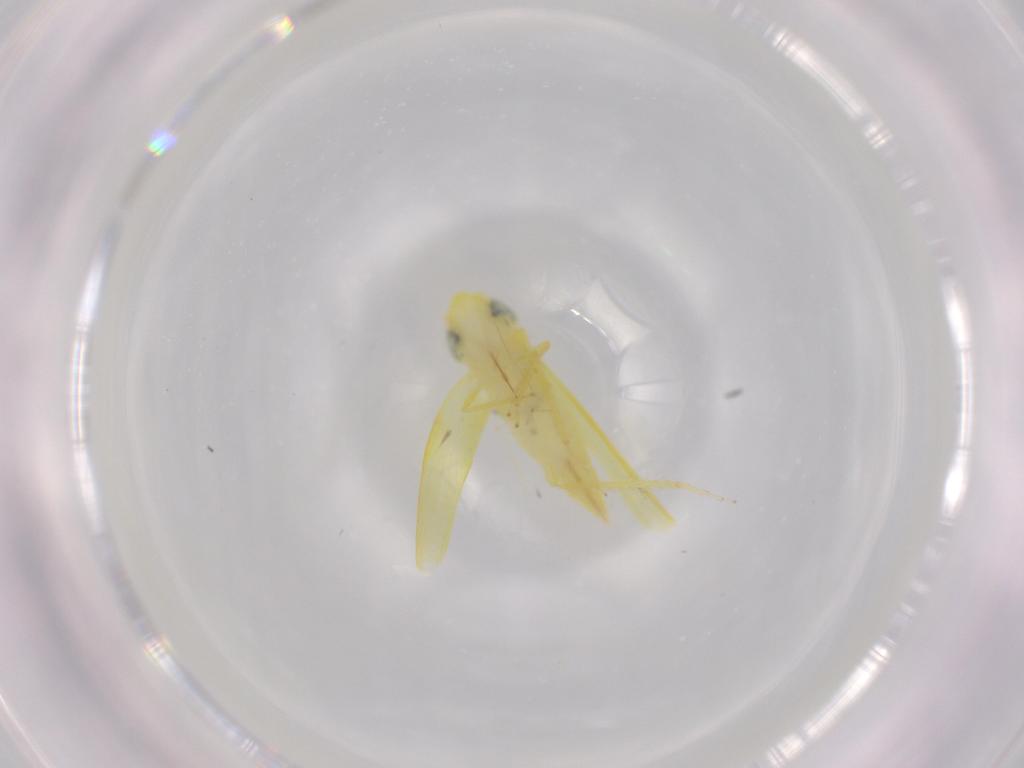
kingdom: Animalia
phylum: Arthropoda
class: Insecta
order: Hemiptera
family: Cicadellidae
